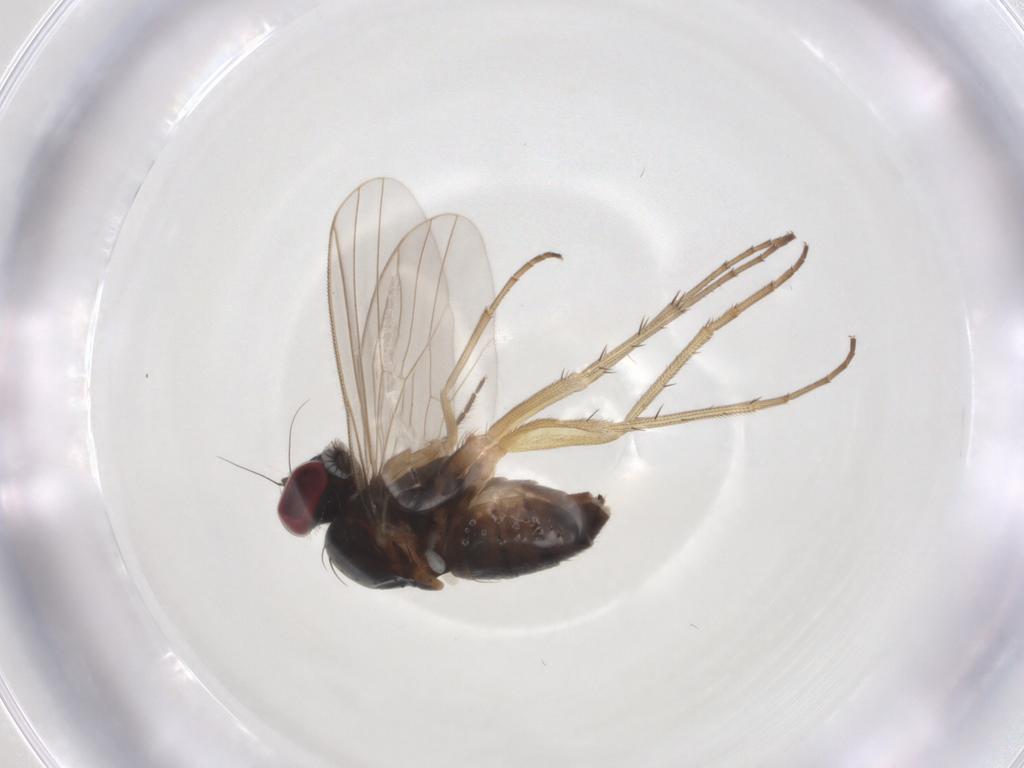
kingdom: Animalia
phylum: Arthropoda
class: Insecta
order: Diptera
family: Dolichopodidae
